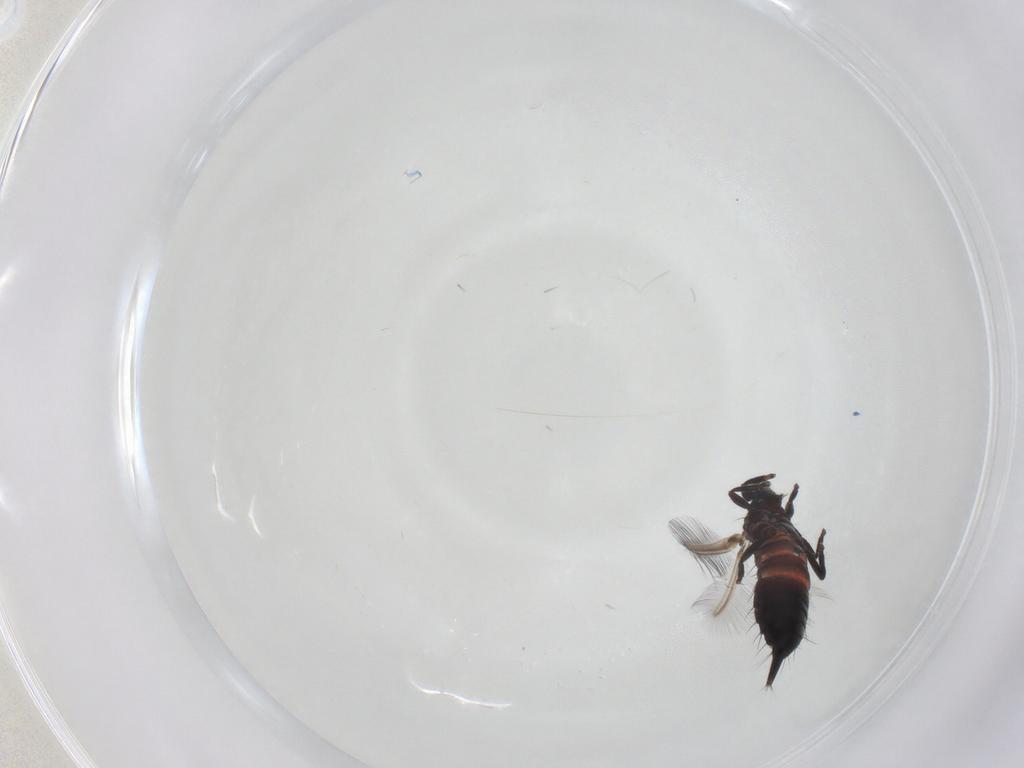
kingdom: Animalia
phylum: Arthropoda
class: Insecta
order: Thysanoptera
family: Phlaeothripidae
